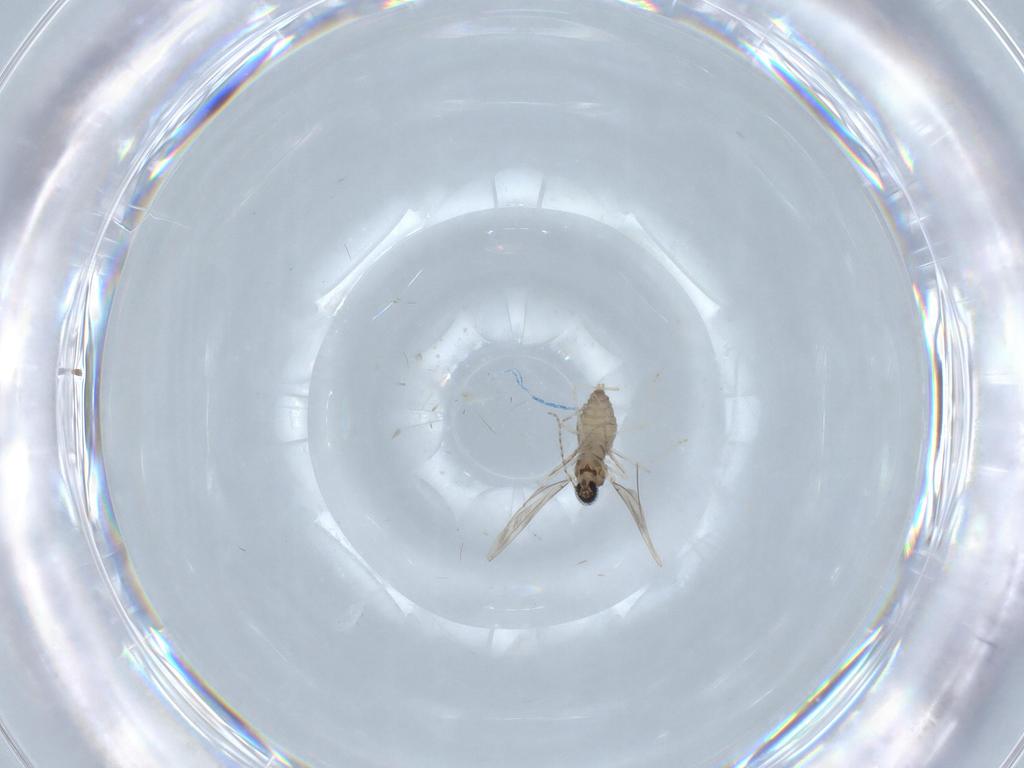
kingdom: Animalia
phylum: Arthropoda
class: Insecta
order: Diptera
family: Cecidomyiidae
